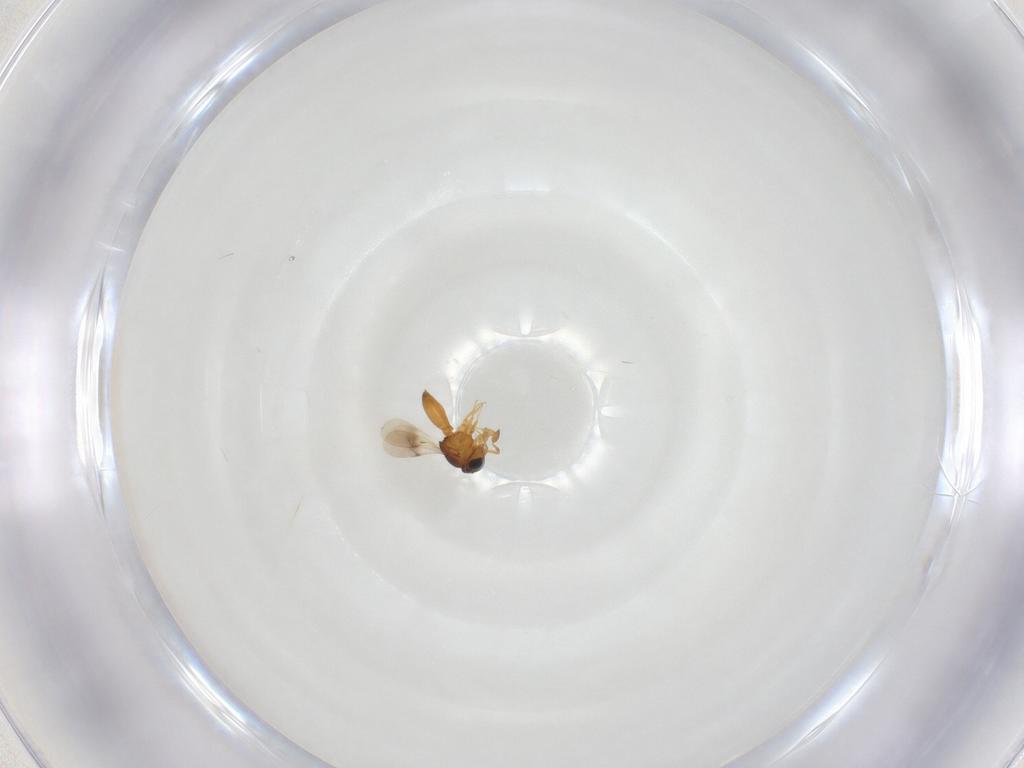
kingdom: Animalia
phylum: Arthropoda
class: Insecta
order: Hymenoptera
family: Scelionidae
